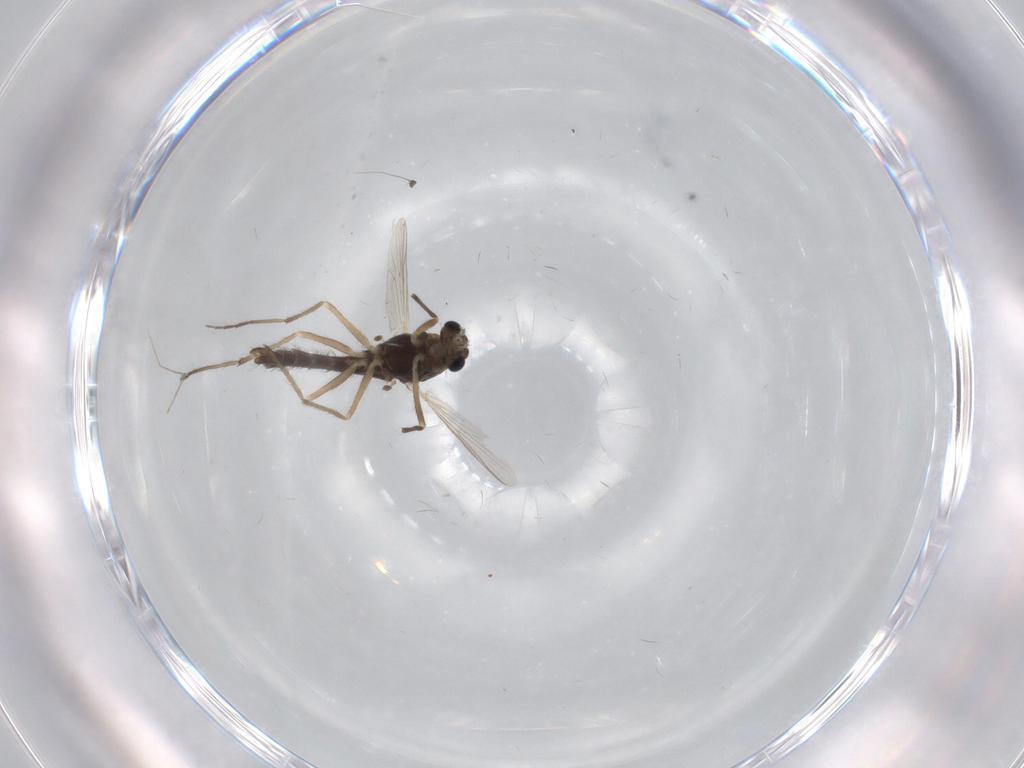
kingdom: Animalia
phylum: Arthropoda
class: Insecta
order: Diptera
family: Chironomidae
